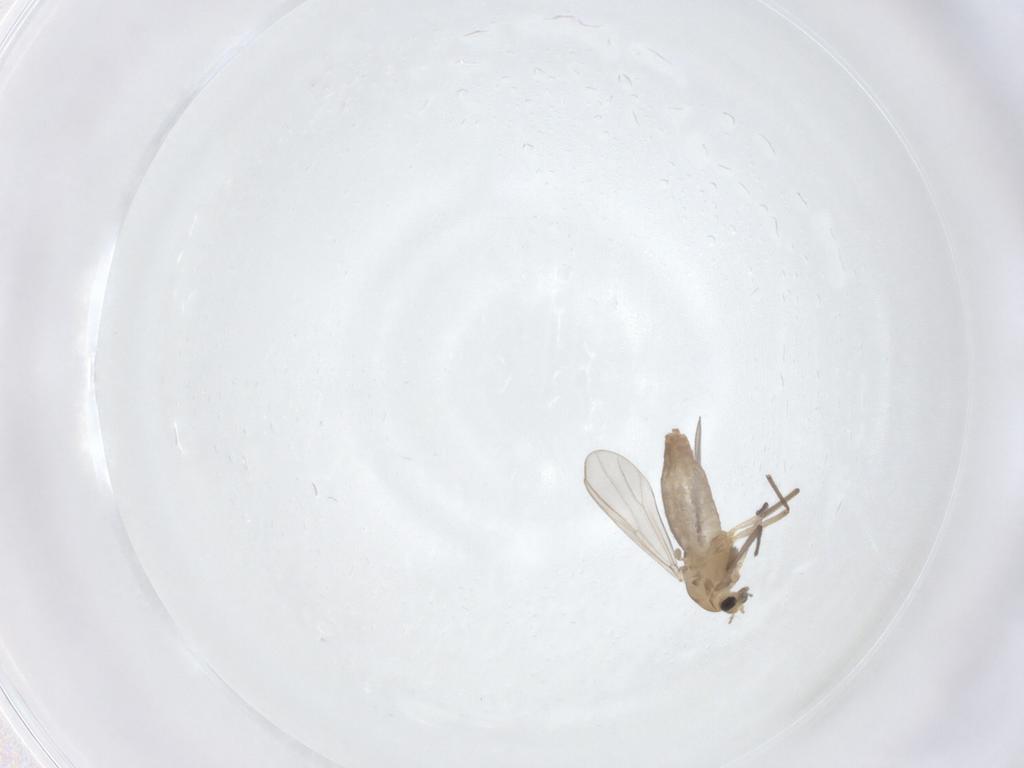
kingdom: Animalia
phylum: Arthropoda
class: Insecta
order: Diptera
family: Chironomidae
